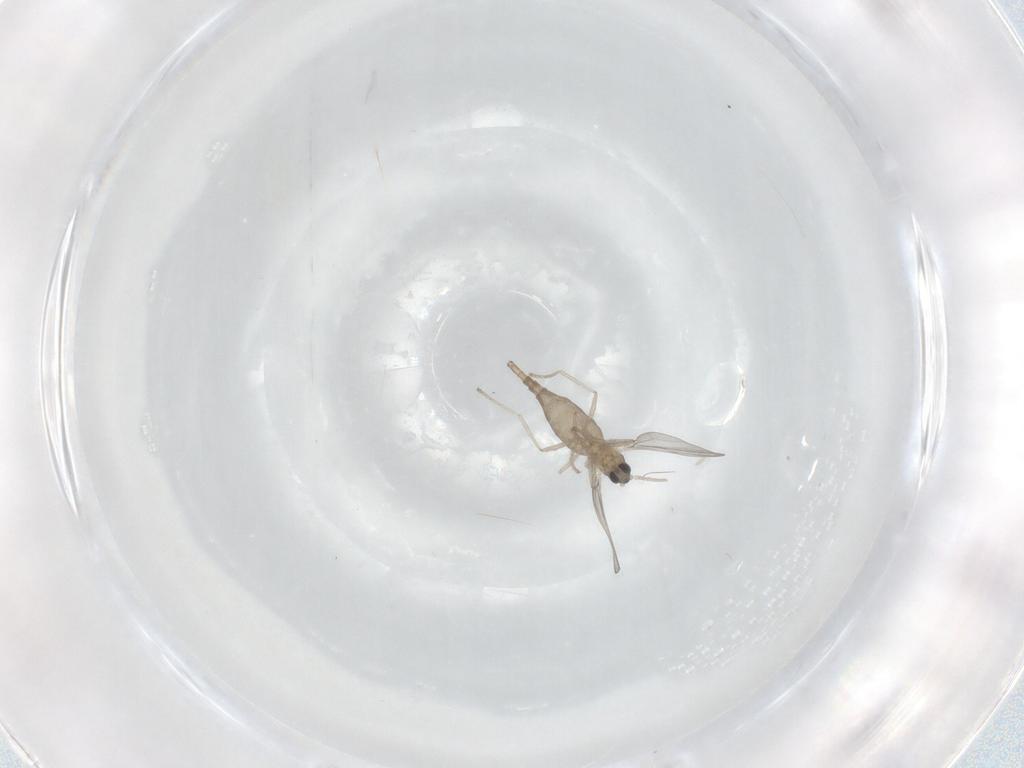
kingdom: Animalia
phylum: Arthropoda
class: Insecta
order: Diptera
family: Cecidomyiidae
